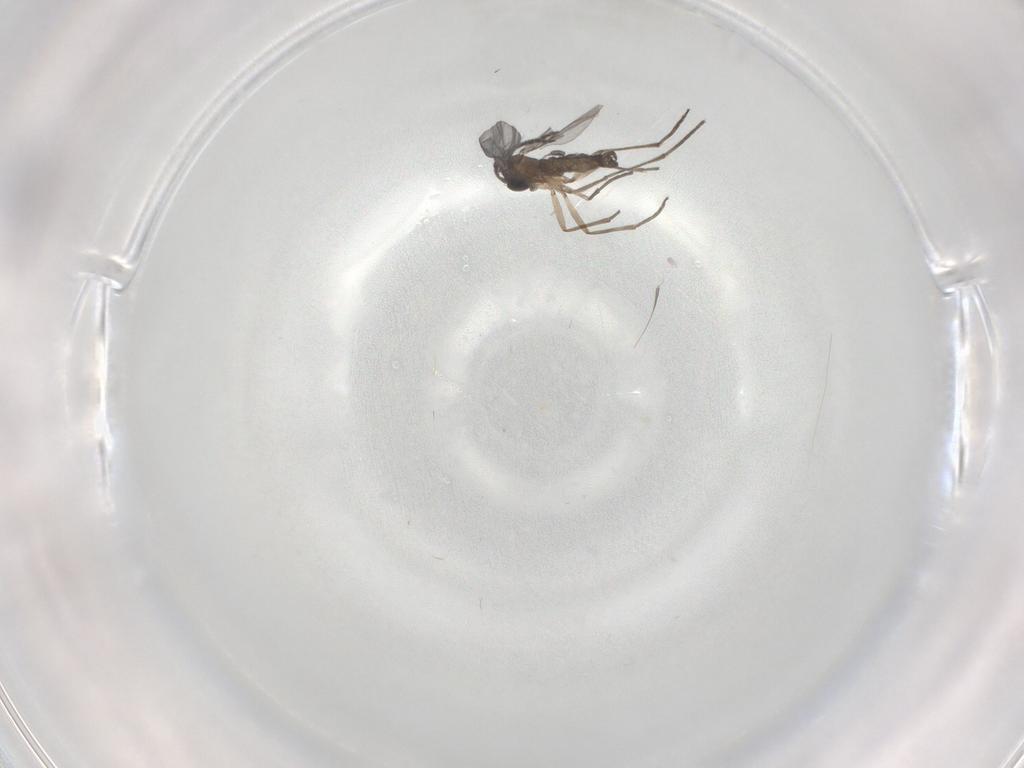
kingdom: Animalia
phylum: Arthropoda
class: Insecta
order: Diptera
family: Sciaridae
